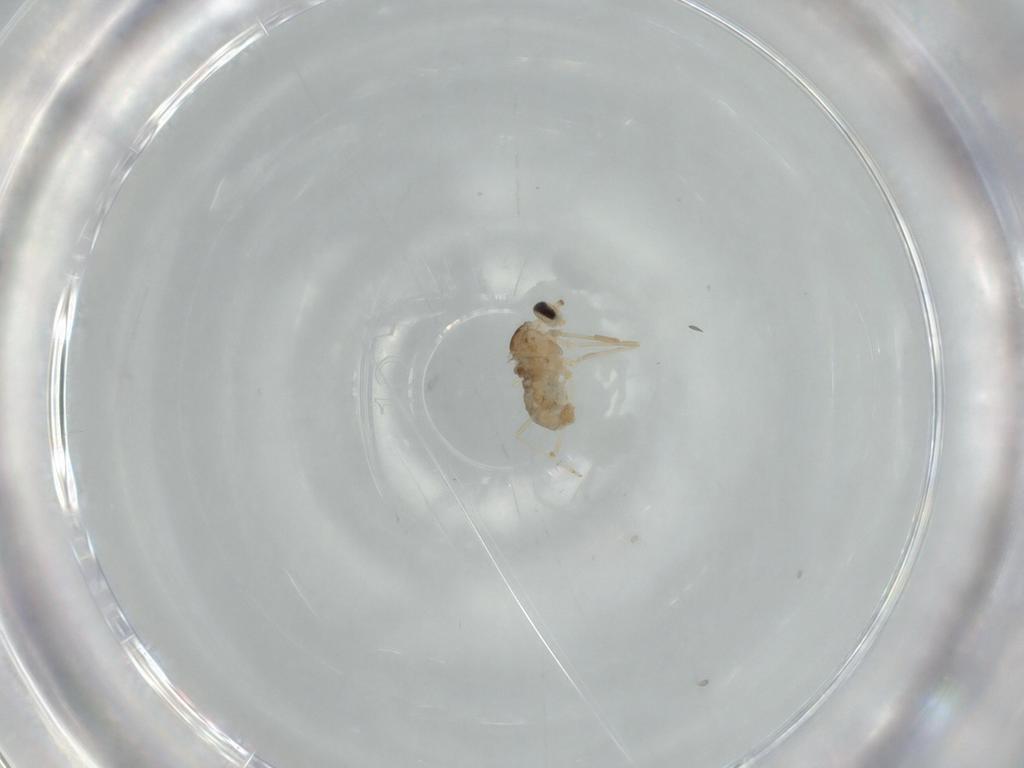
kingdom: Animalia
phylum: Arthropoda
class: Insecta
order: Diptera
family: Cecidomyiidae
